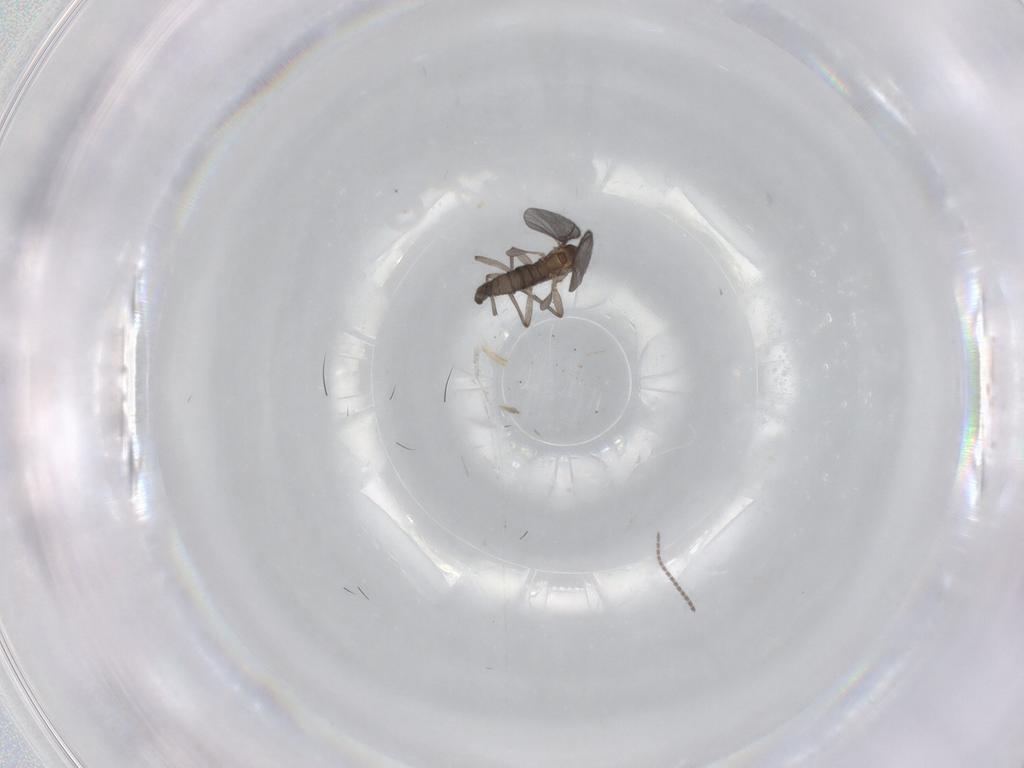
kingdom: Animalia
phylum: Arthropoda
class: Insecta
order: Diptera
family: Sciaridae
